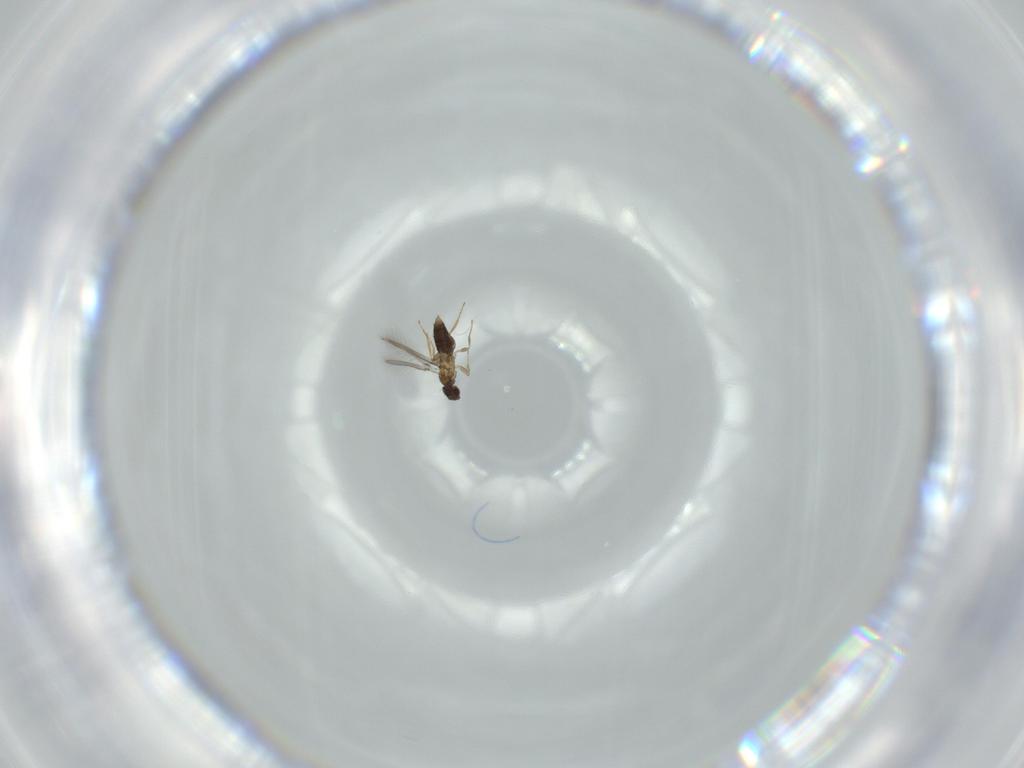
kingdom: Animalia
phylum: Arthropoda
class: Insecta
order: Hymenoptera
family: Mymaridae
